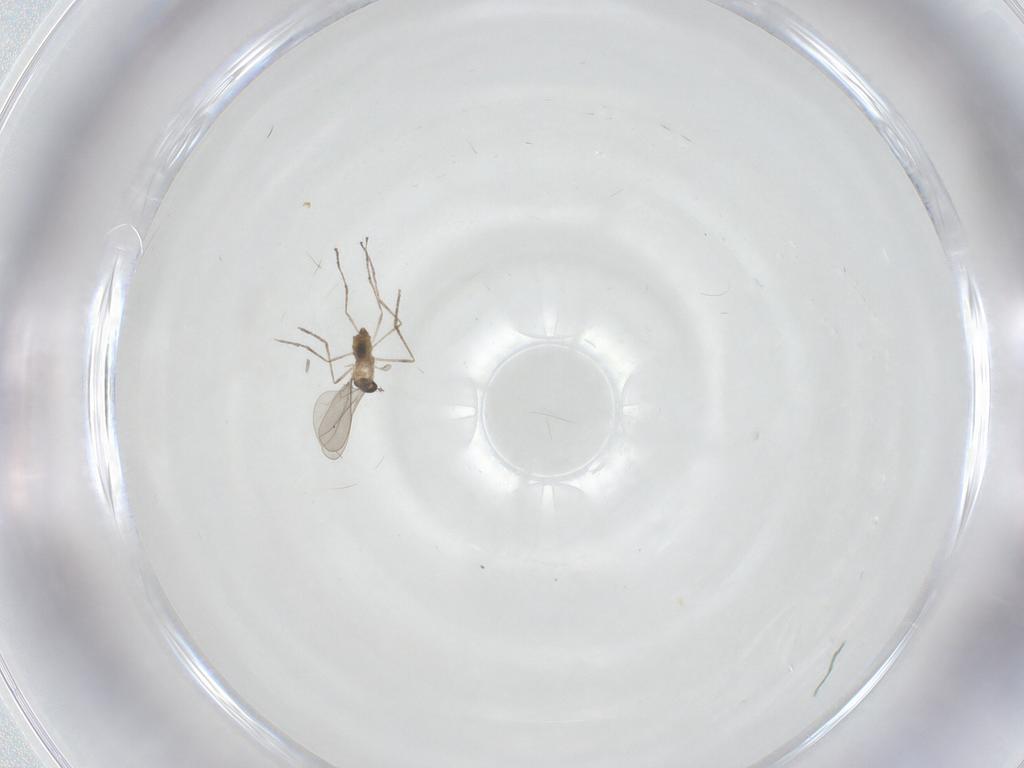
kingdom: Animalia
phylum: Arthropoda
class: Insecta
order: Diptera
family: Cecidomyiidae
